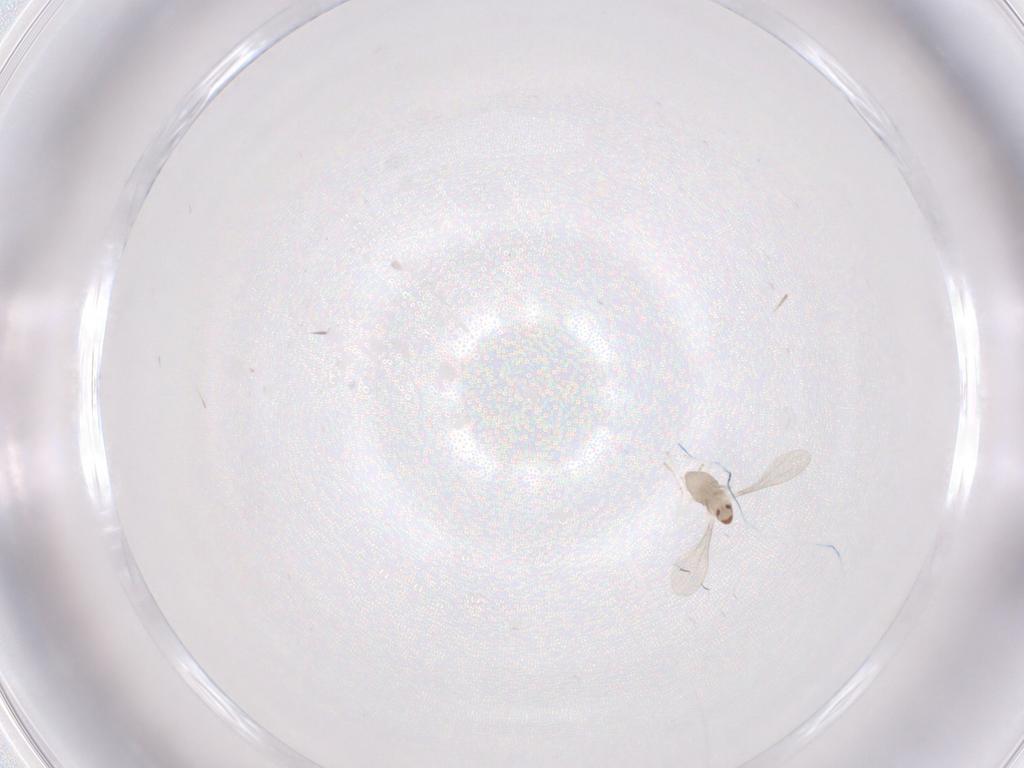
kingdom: Animalia
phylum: Arthropoda
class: Insecta
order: Diptera
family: Cecidomyiidae
